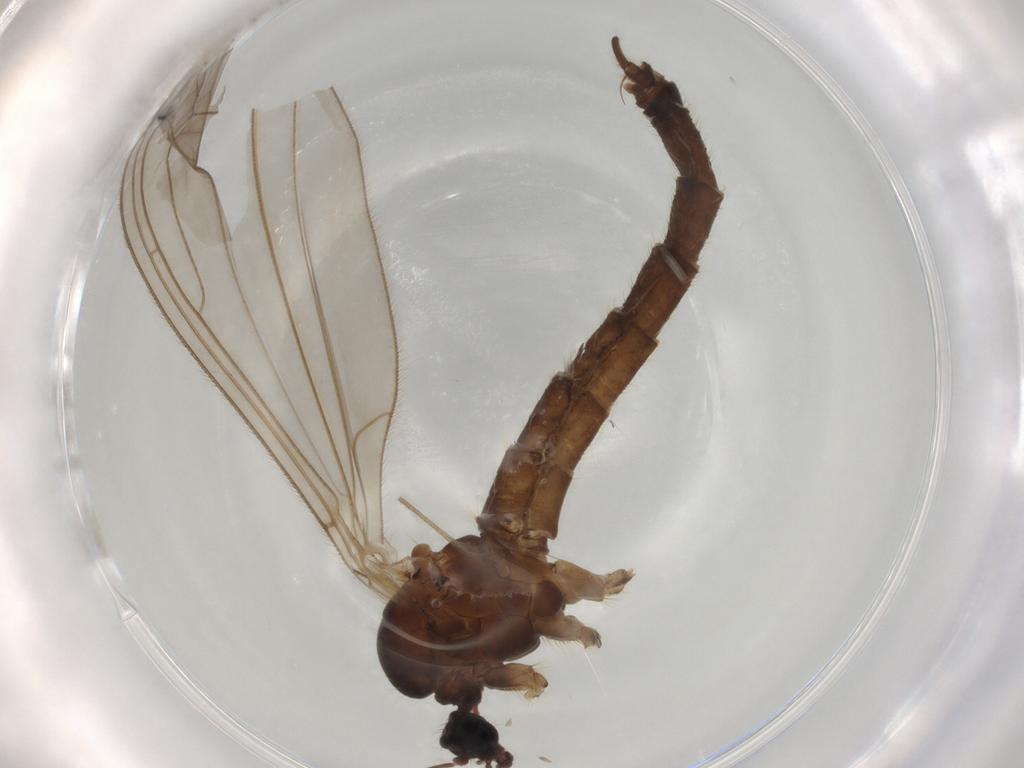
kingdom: Animalia
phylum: Arthropoda
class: Insecta
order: Diptera
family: Trichoceridae
